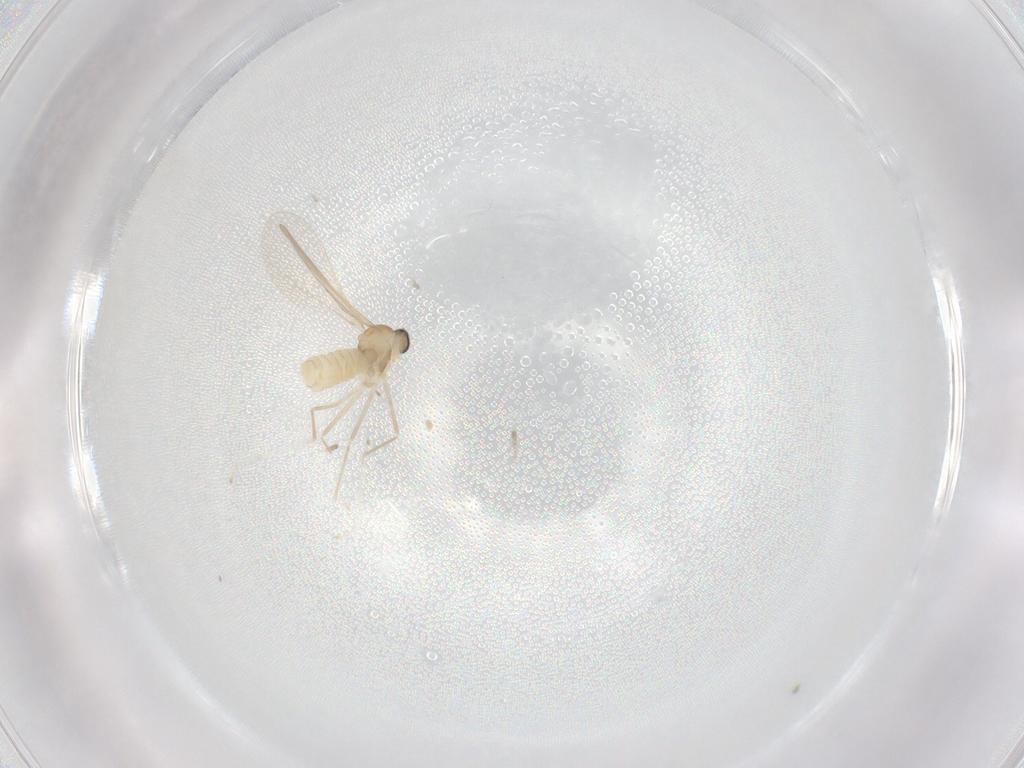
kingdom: Animalia
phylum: Arthropoda
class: Insecta
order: Diptera
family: Cecidomyiidae
